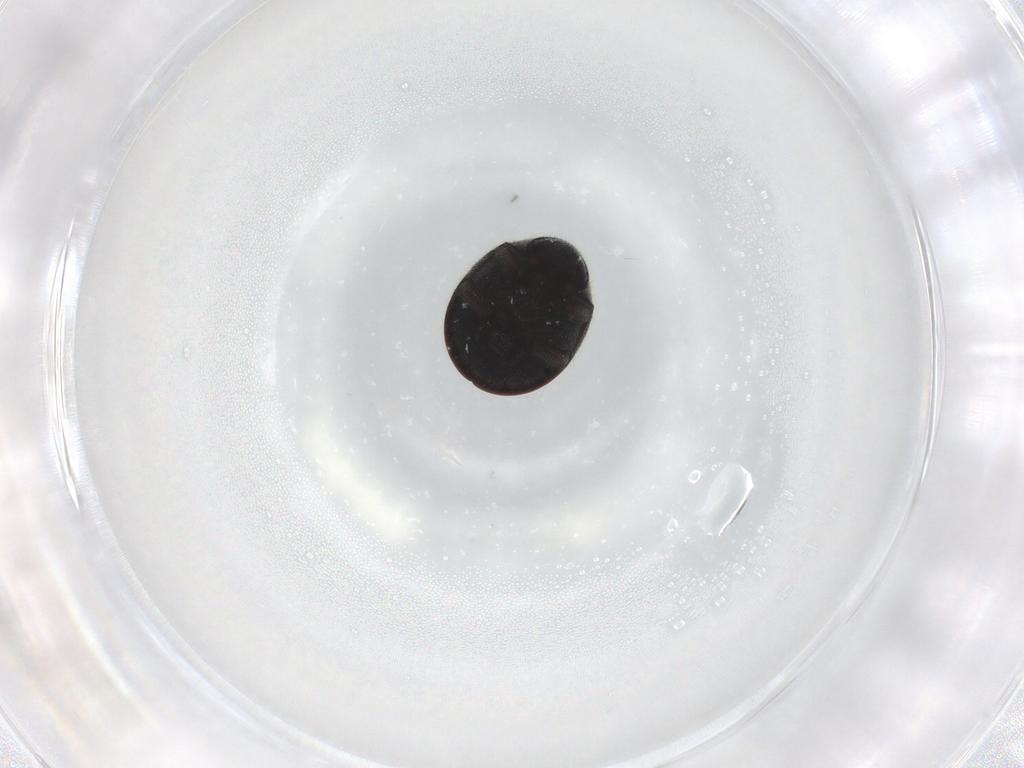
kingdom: Animalia
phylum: Arthropoda
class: Insecta
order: Coleoptera
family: Ptinidae
